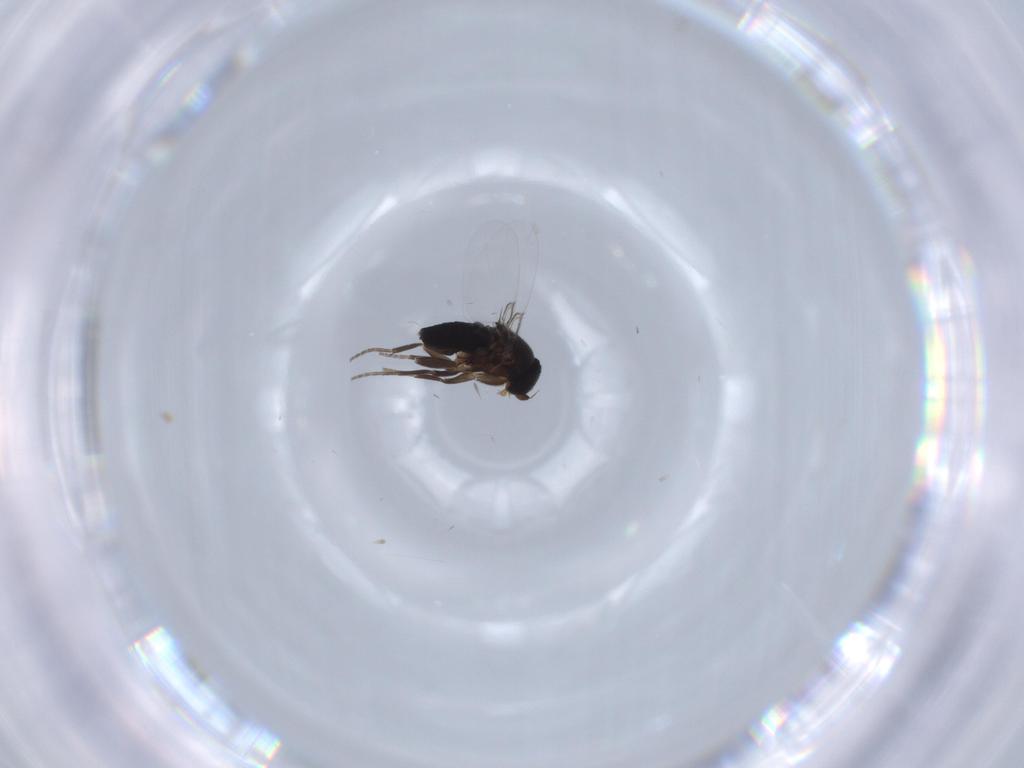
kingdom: Animalia
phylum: Arthropoda
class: Insecta
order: Diptera
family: Phoridae
